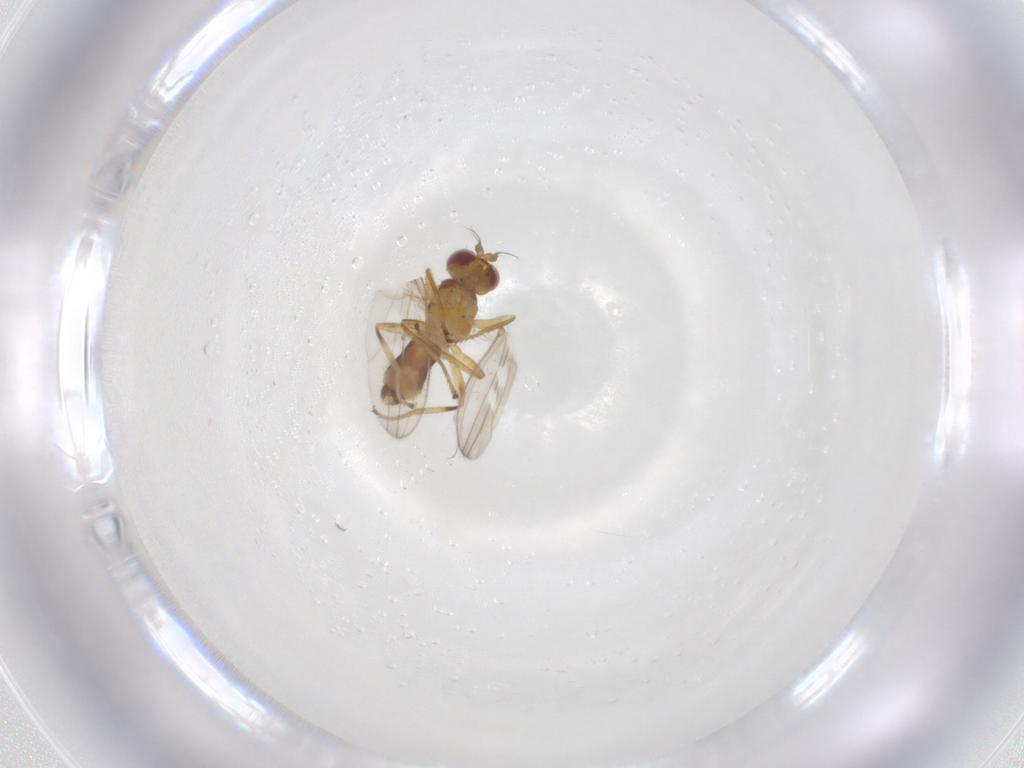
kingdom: Animalia
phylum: Arthropoda
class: Insecta
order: Diptera
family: Periscelididae
